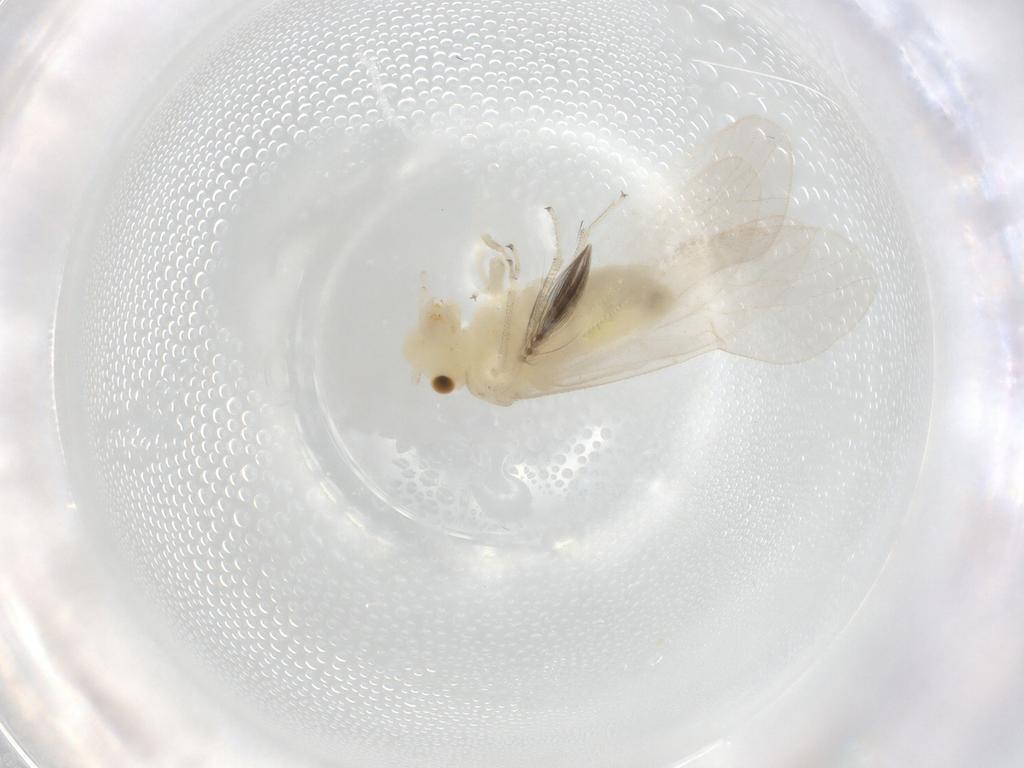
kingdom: Animalia
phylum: Arthropoda
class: Insecta
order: Psocodea
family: Caeciliusidae
